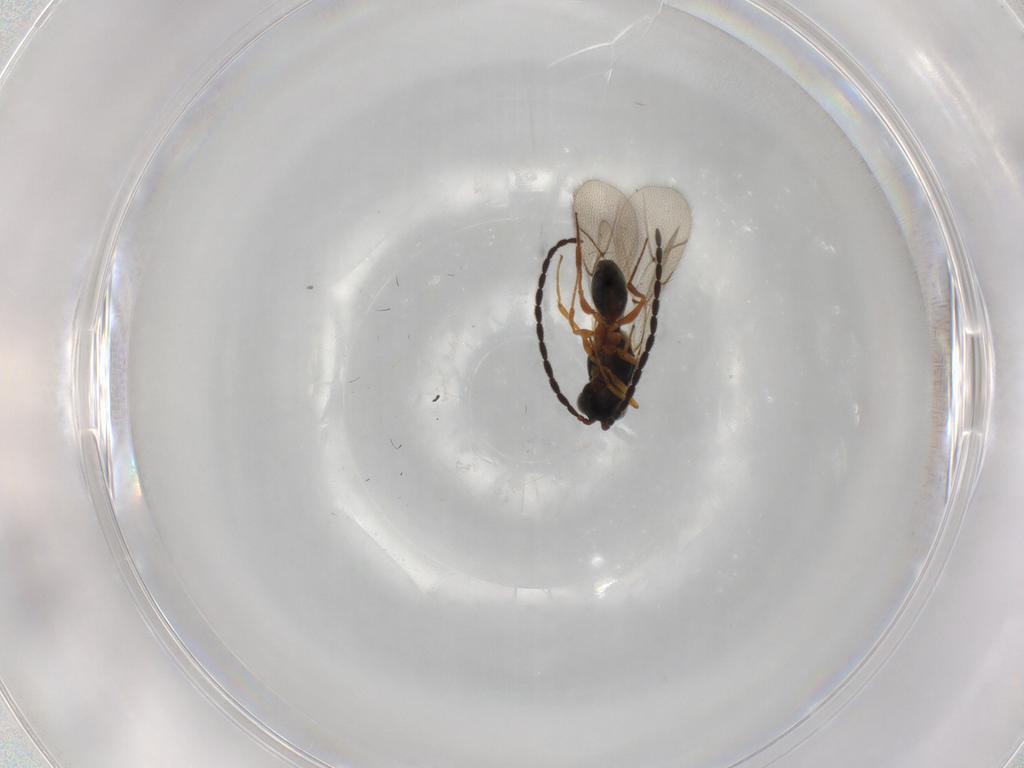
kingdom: Animalia
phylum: Arthropoda
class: Insecta
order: Hymenoptera
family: Figitidae
